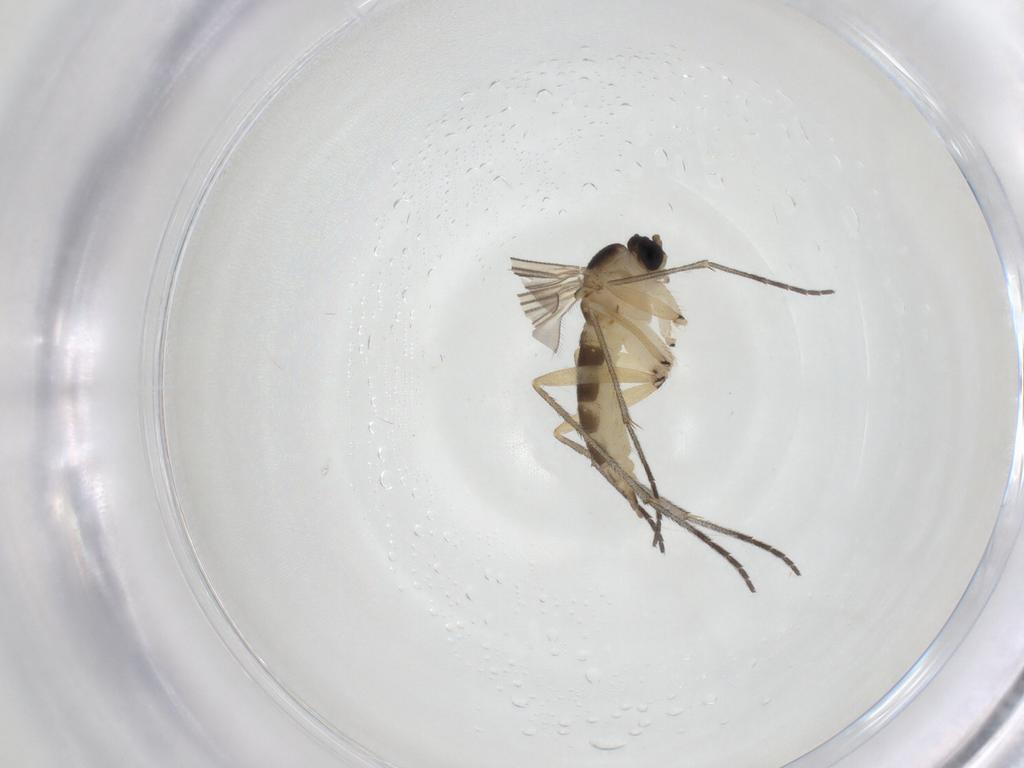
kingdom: Animalia
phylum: Arthropoda
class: Insecta
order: Diptera
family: Sciaridae
